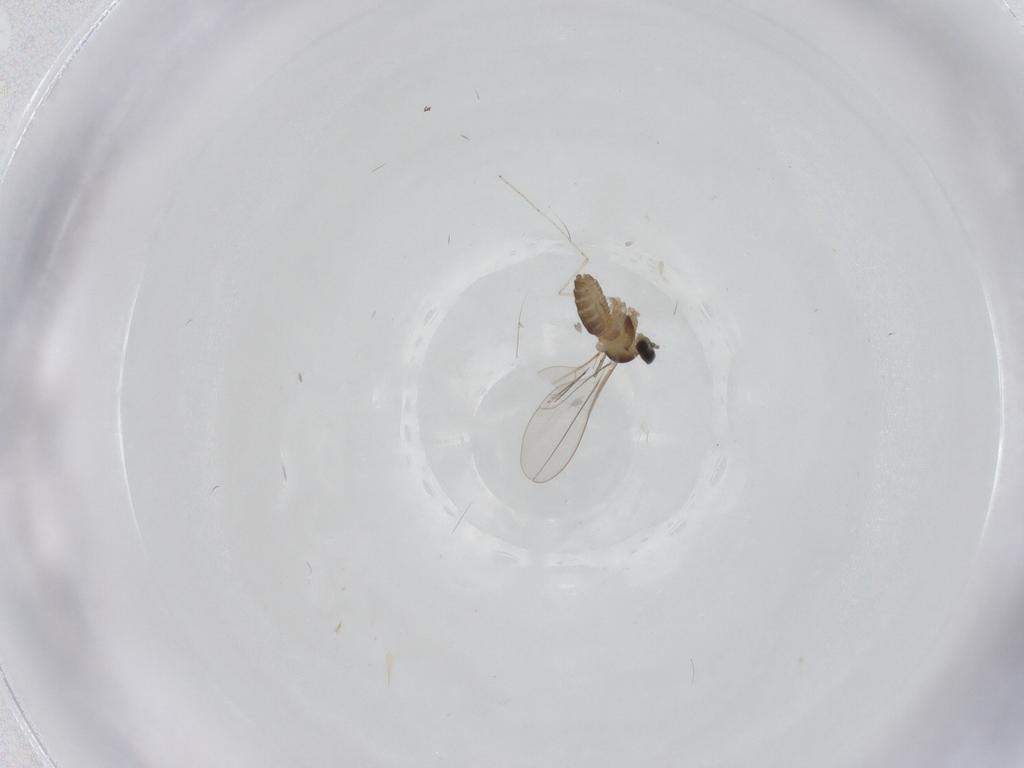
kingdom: Animalia
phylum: Arthropoda
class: Insecta
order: Diptera
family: Cecidomyiidae
